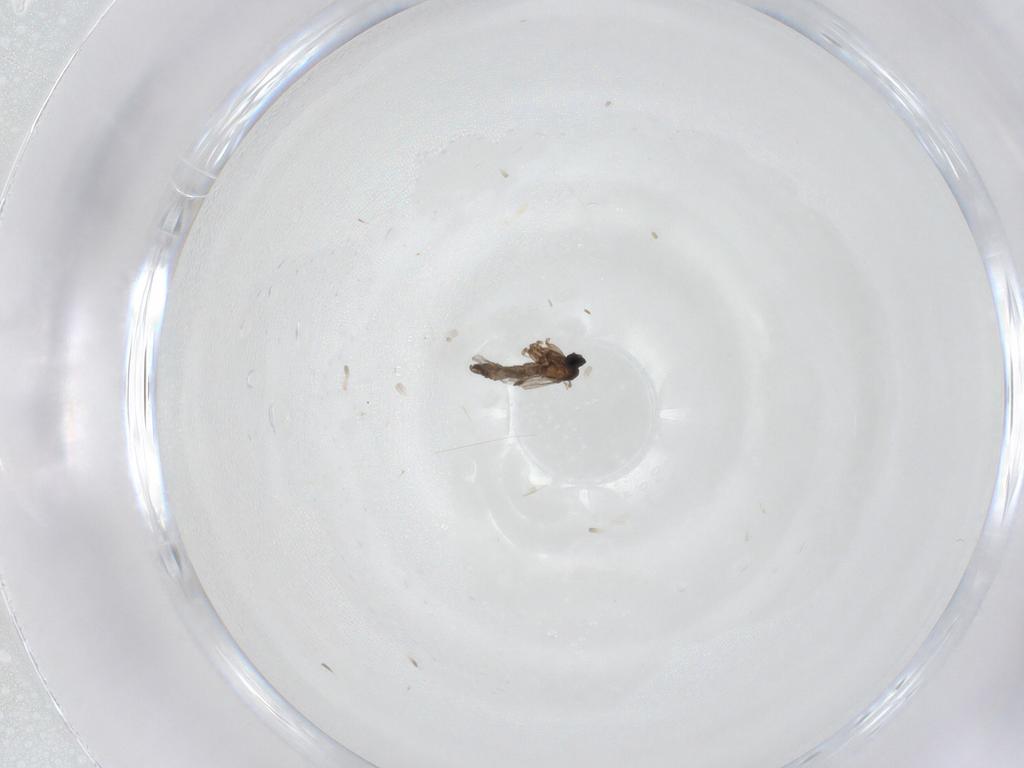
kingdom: Animalia
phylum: Arthropoda
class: Insecta
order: Diptera
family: Sciaridae
